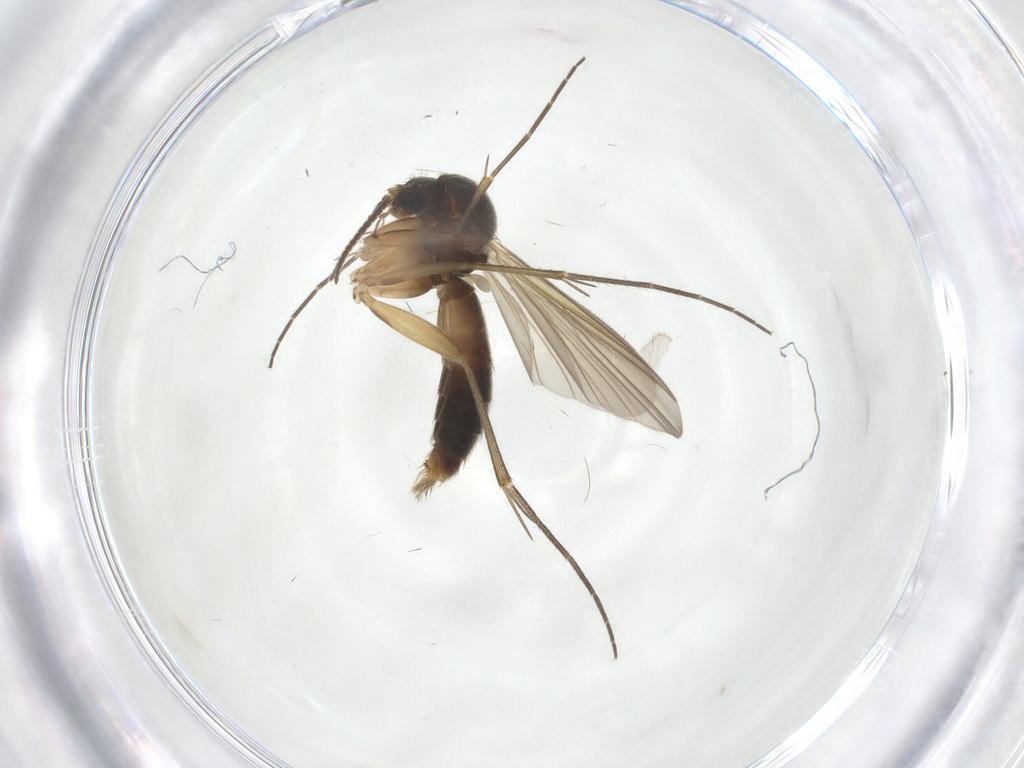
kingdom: Animalia
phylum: Arthropoda
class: Insecta
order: Diptera
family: Ceratopogonidae
